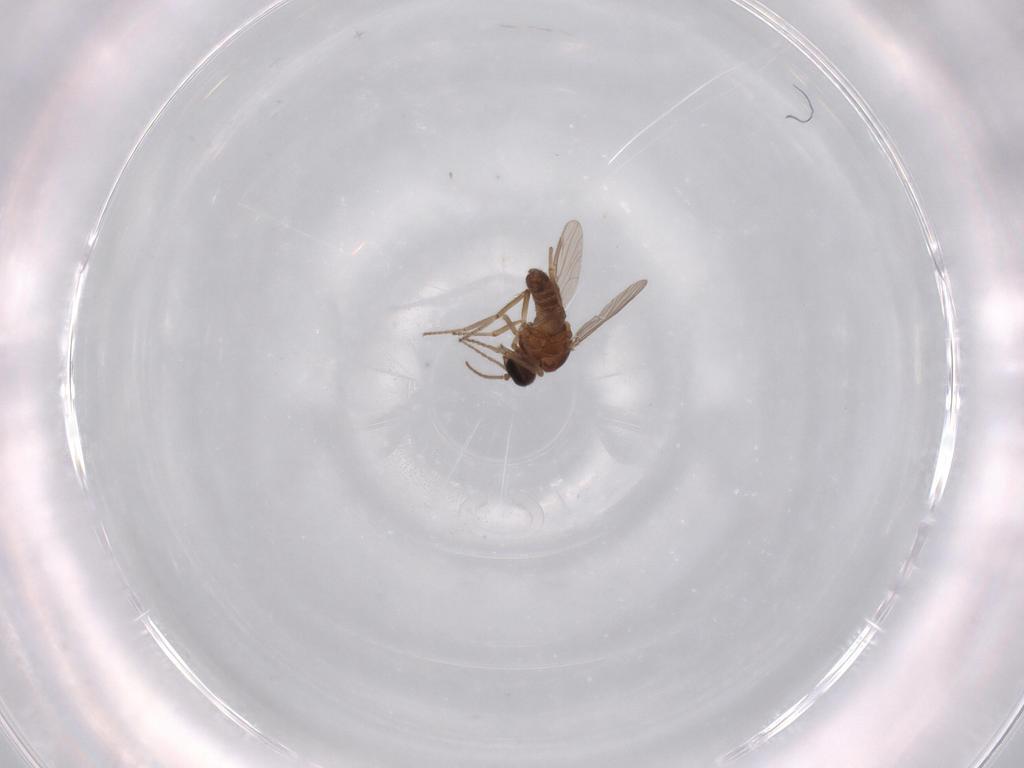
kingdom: Animalia
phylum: Arthropoda
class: Insecta
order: Diptera
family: Ceratopogonidae
